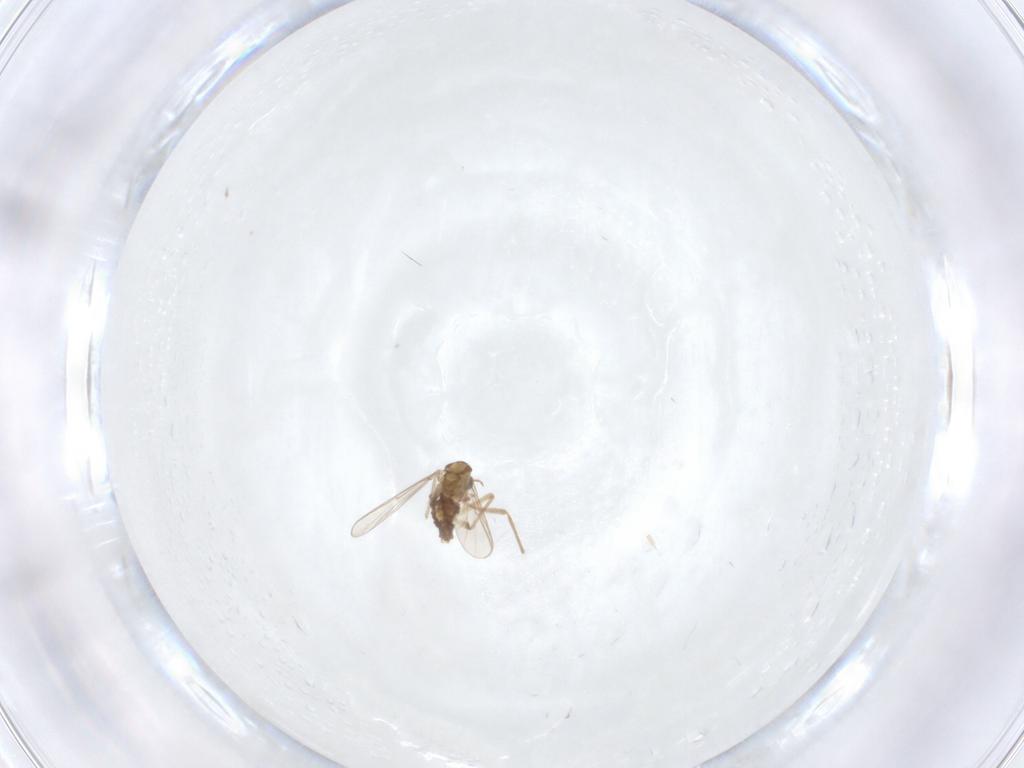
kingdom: Animalia
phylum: Arthropoda
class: Insecta
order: Diptera
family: Chironomidae
